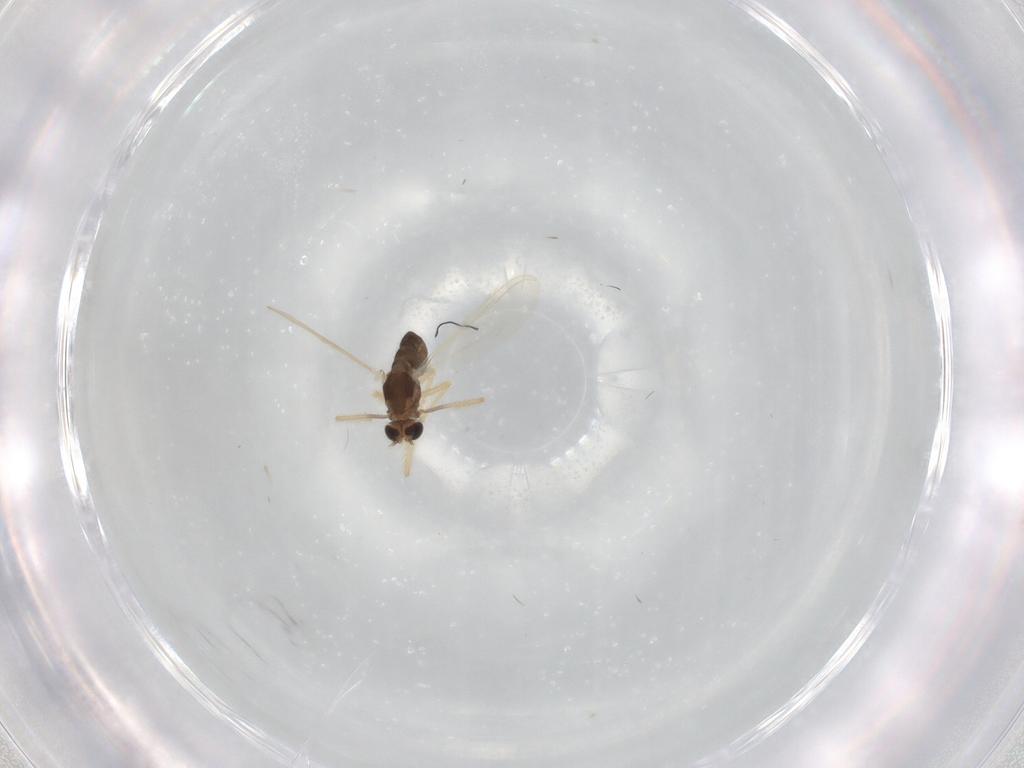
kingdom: Animalia
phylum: Arthropoda
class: Insecta
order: Diptera
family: Chironomidae
